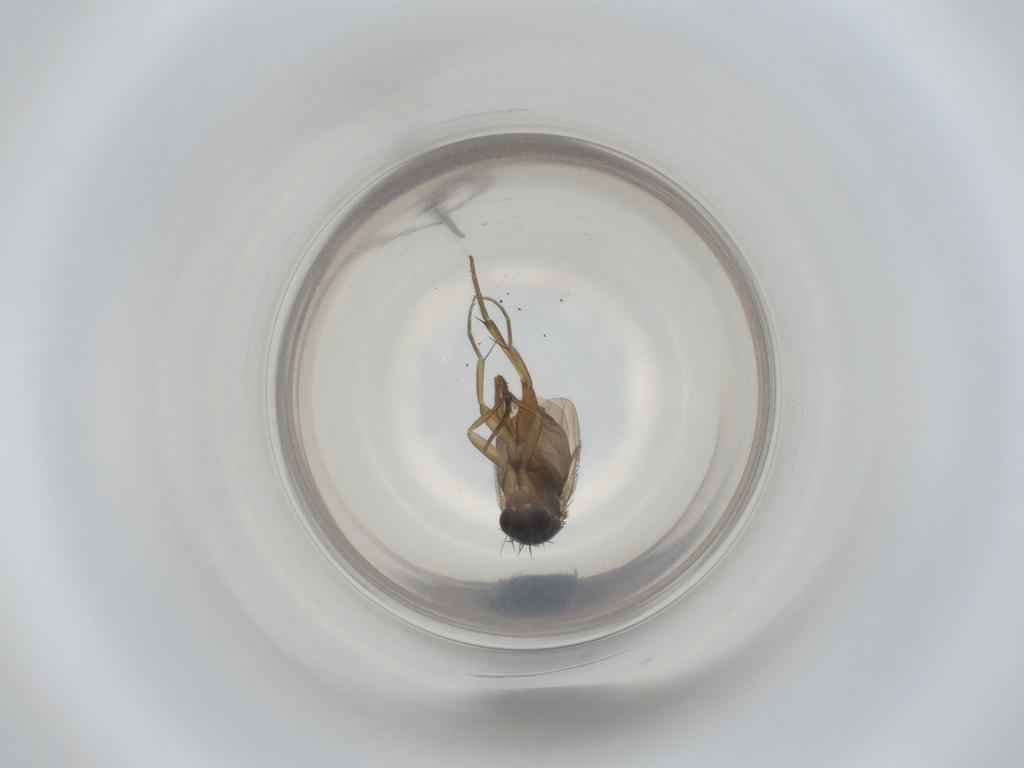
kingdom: Animalia
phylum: Arthropoda
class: Insecta
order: Diptera
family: Phoridae
